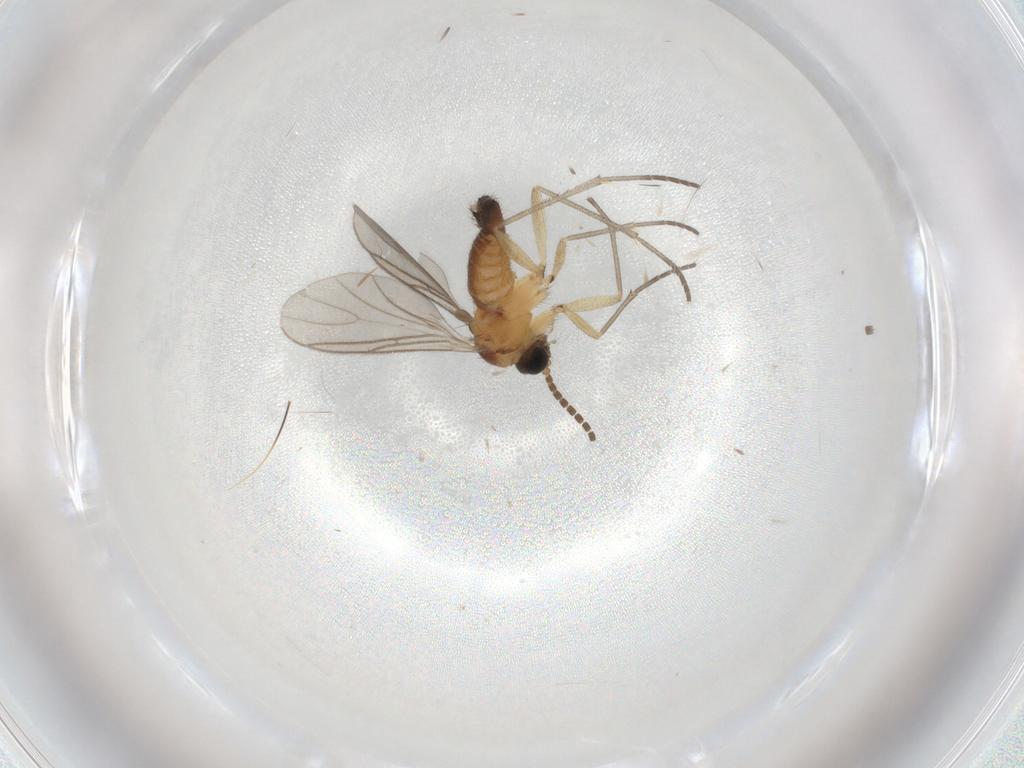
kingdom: Animalia
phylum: Arthropoda
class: Insecta
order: Diptera
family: Sciaridae
